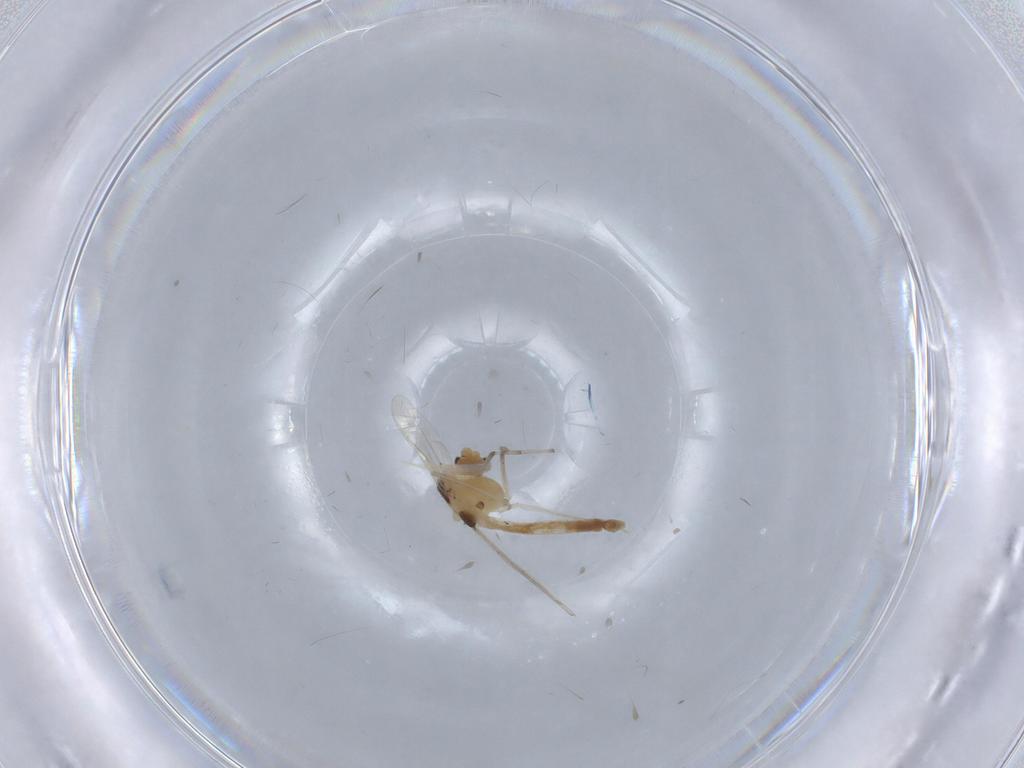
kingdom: Animalia
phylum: Arthropoda
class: Insecta
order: Diptera
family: Chironomidae
